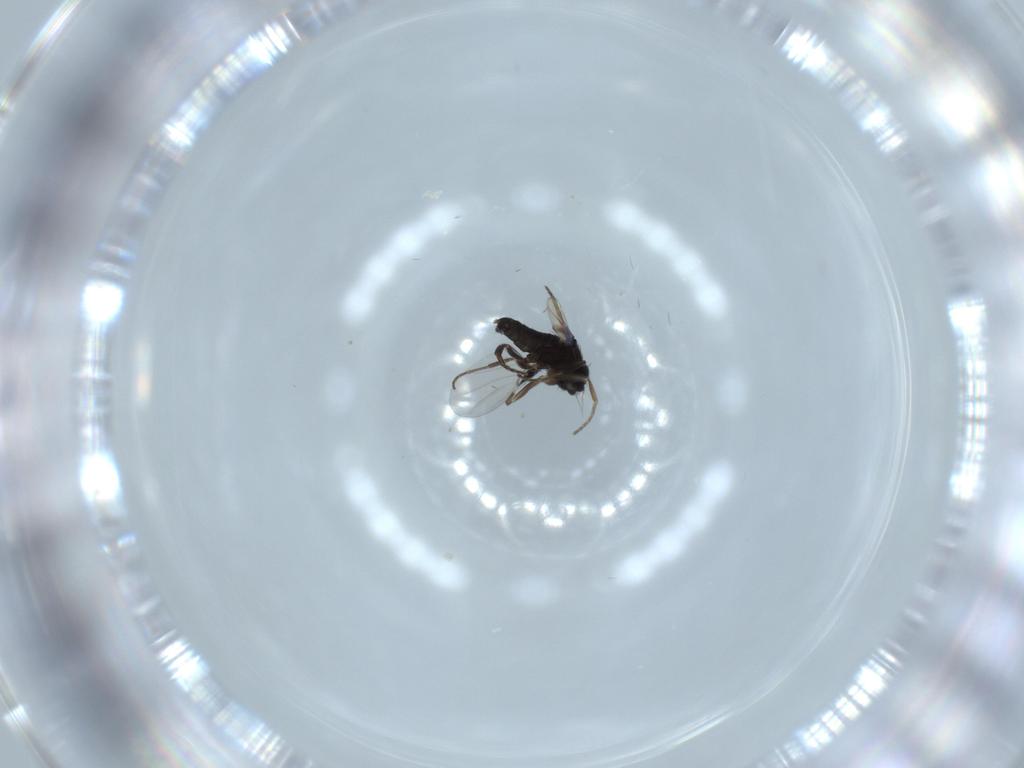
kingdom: Animalia
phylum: Arthropoda
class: Insecta
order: Diptera
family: Phoridae
